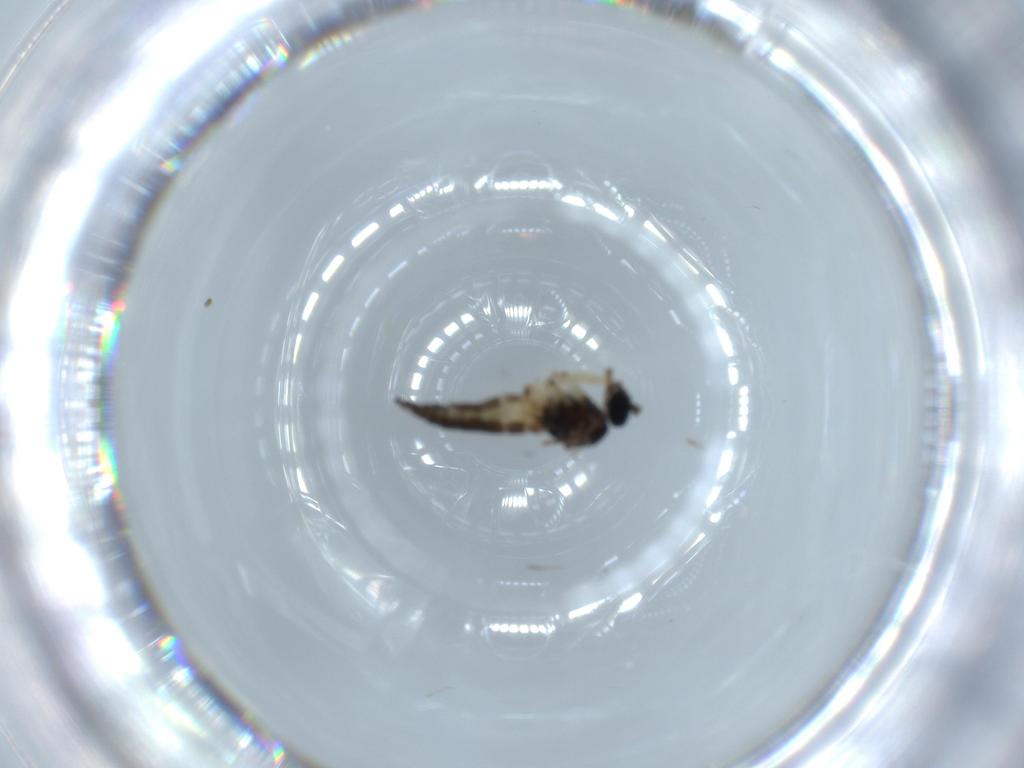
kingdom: Animalia
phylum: Arthropoda
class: Insecta
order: Diptera
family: Sciaridae
